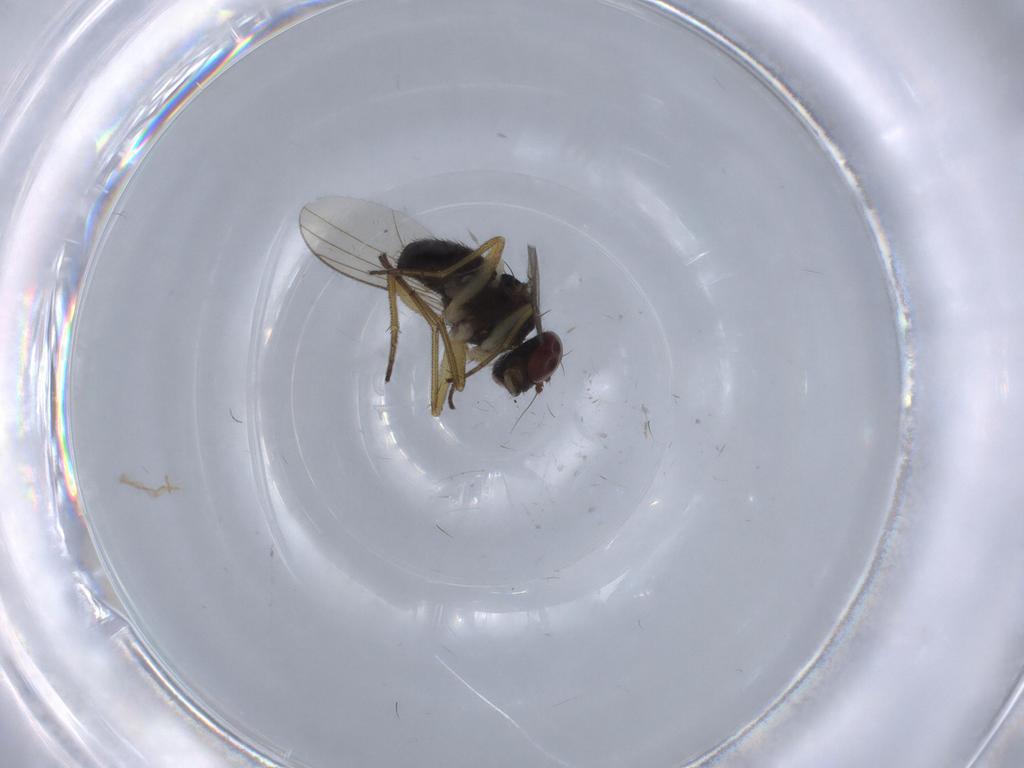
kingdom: Animalia
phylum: Arthropoda
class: Insecta
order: Diptera
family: Dolichopodidae
